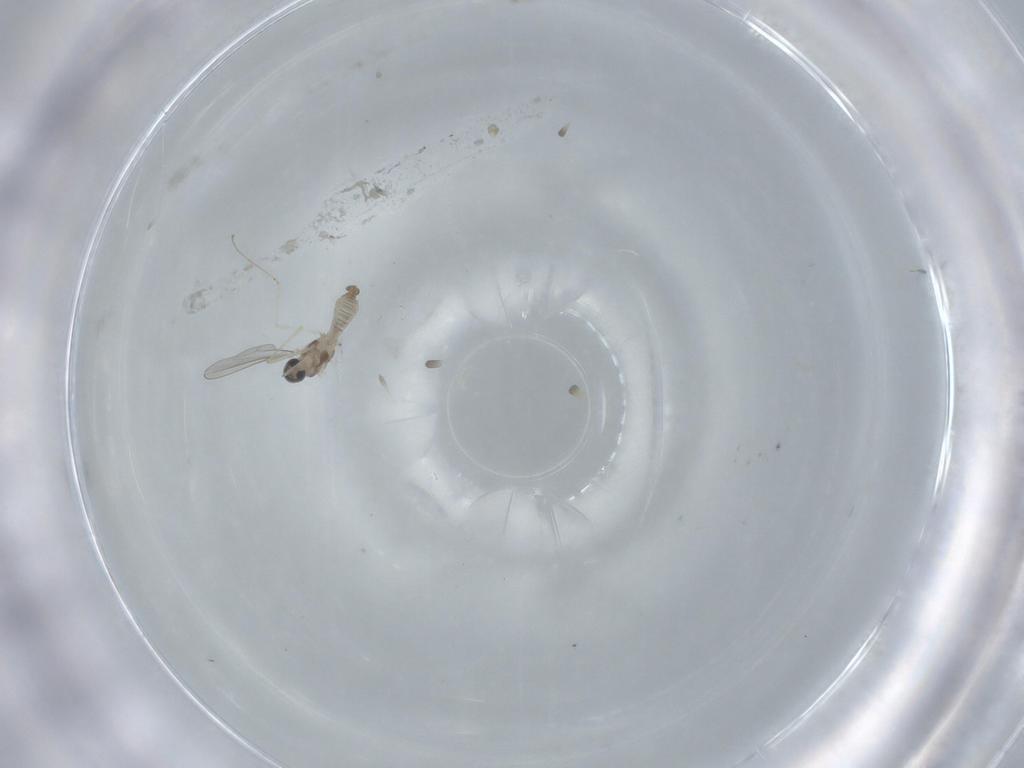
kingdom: Animalia
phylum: Arthropoda
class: Insecta
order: Diptera
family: Cecidomyiidae
